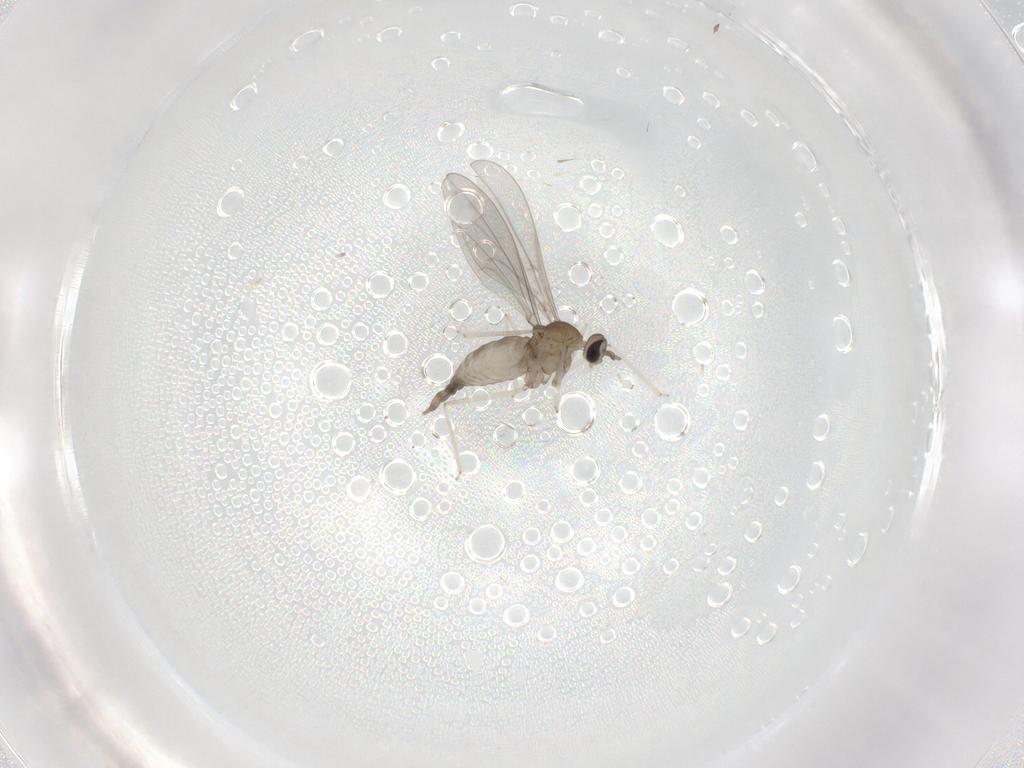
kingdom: Animalia
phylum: Arthropoda
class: Insecta
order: Diptera
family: Cecidomyiidae
